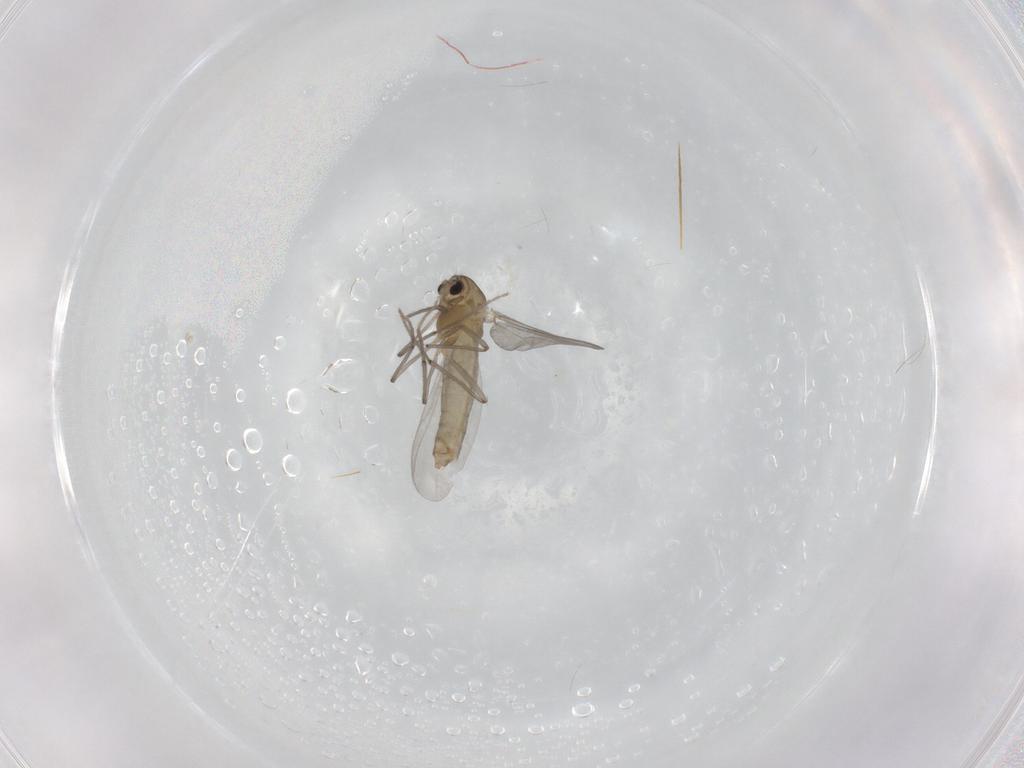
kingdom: Animalia
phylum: Arthropoda
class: Insecta
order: Diptera
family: Chironomidae
